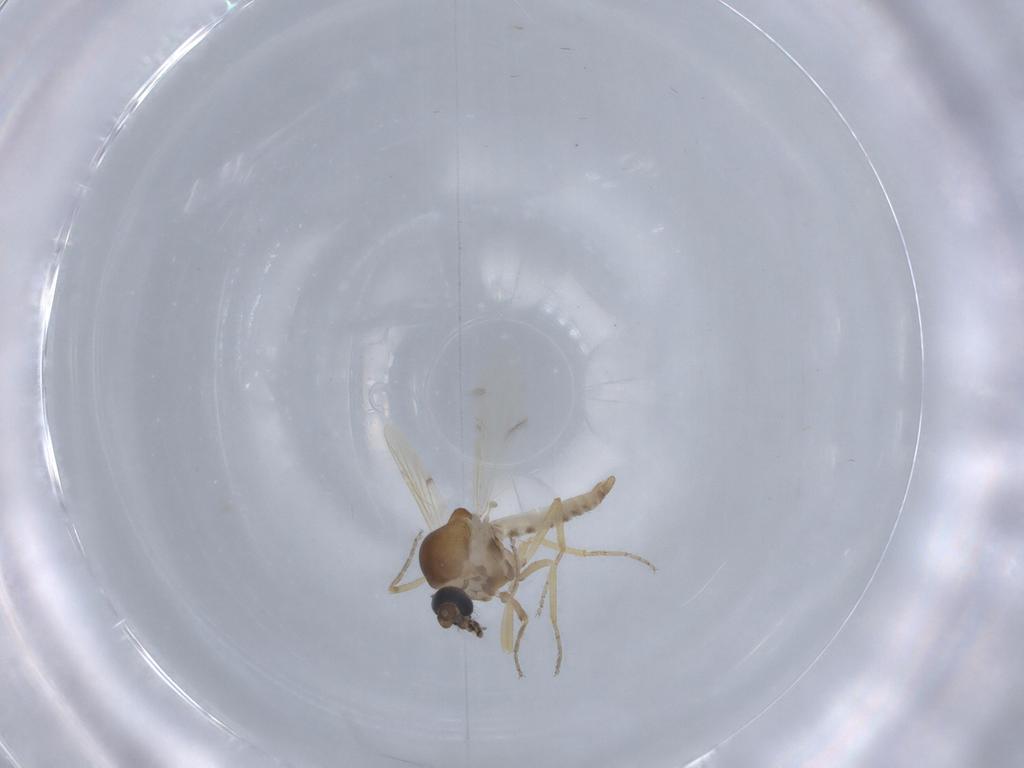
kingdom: Animalia
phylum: Arthropoda
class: Insecta
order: Diptera
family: Ceratopogonidae
